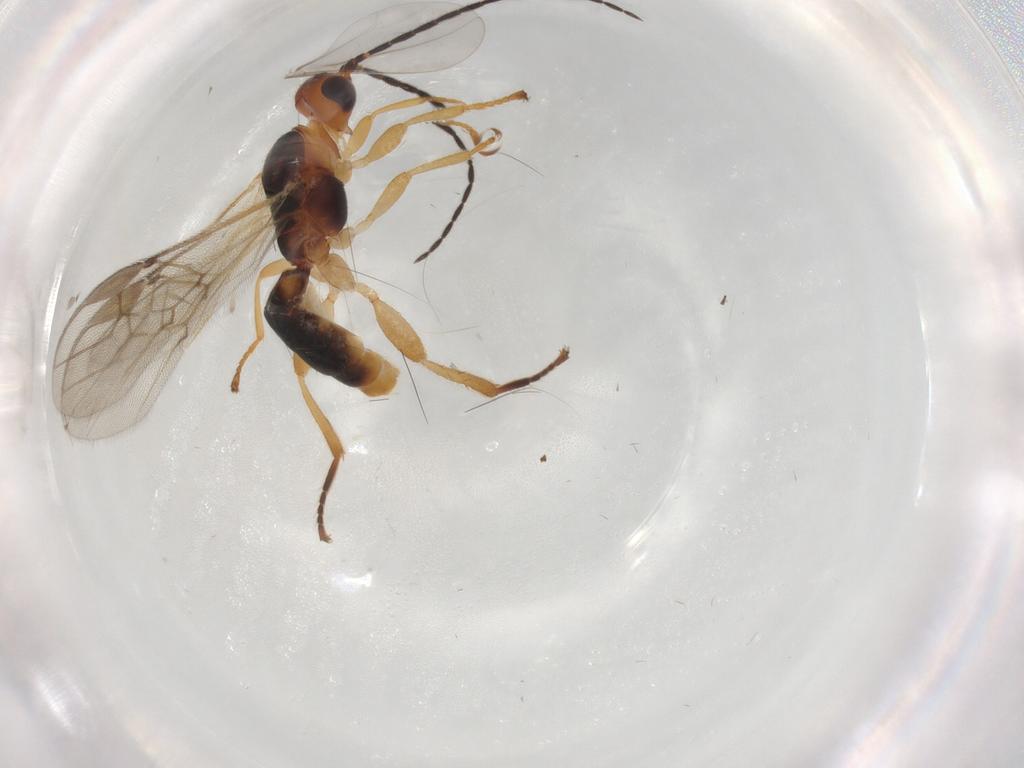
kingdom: Animalia
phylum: Arthropoda
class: Insecta
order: Hymenoptera
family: Braconidae
